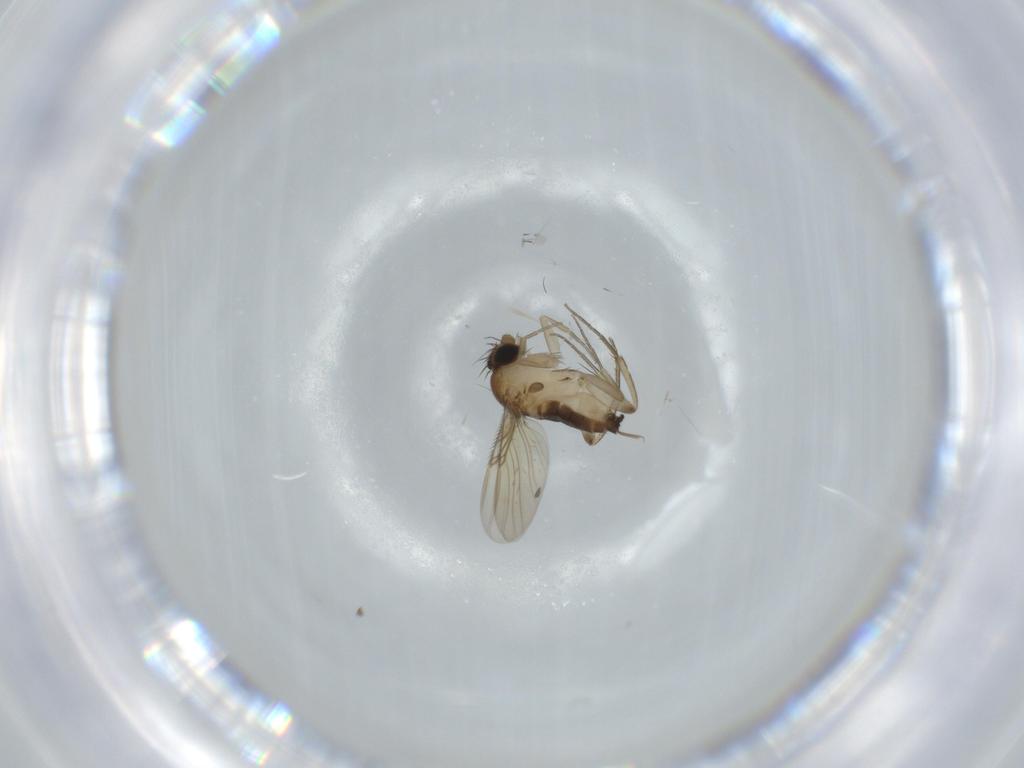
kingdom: Animalia
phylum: Arthropoda
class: Insecta
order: Diptera
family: Phoridae
